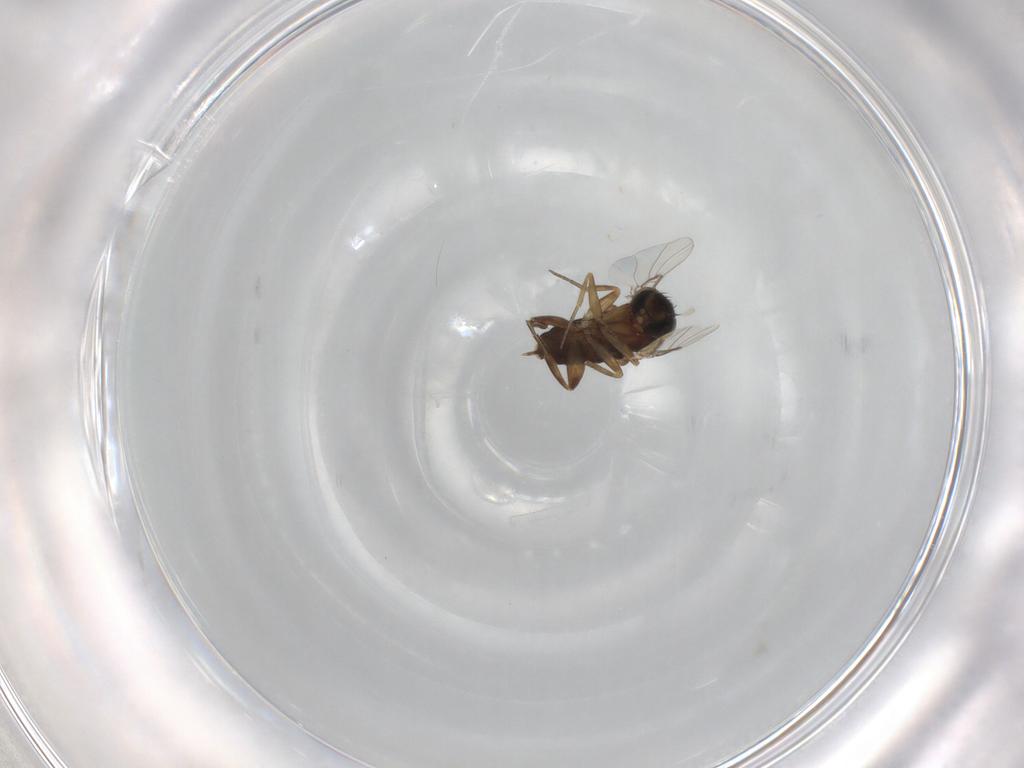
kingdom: Animalia
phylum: Arthropoda
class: Insecta
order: Diptera
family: Phoridae
